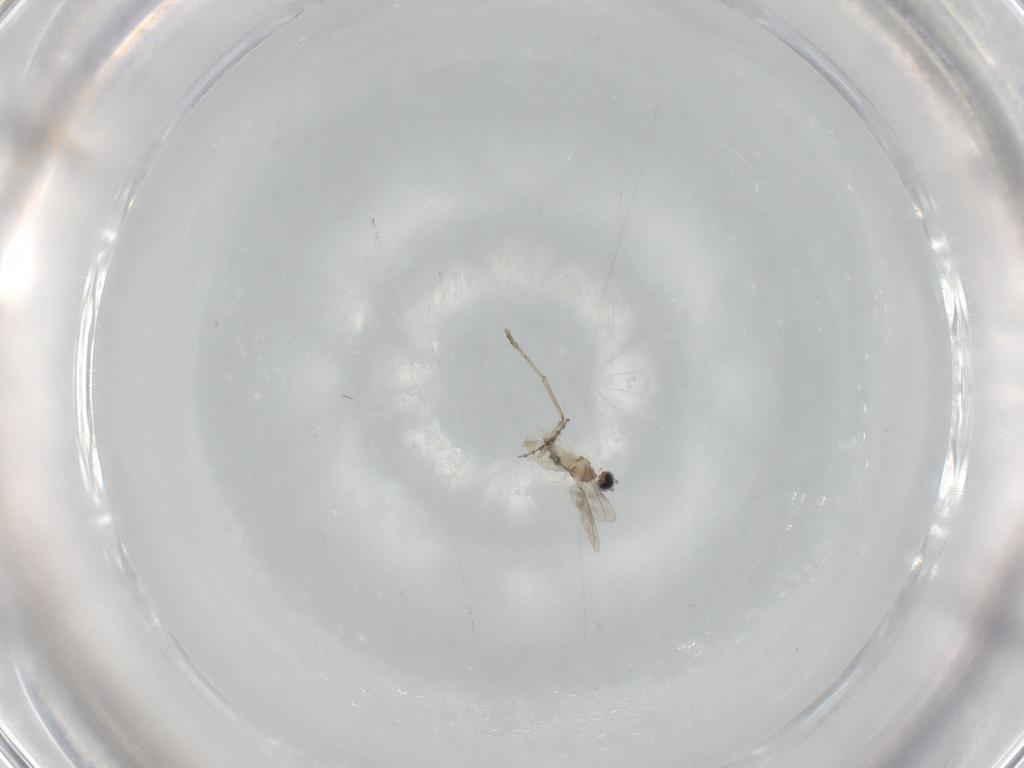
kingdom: Animalia
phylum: Arthropoda
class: Insecta
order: Diptera
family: Cecidomyiidae
